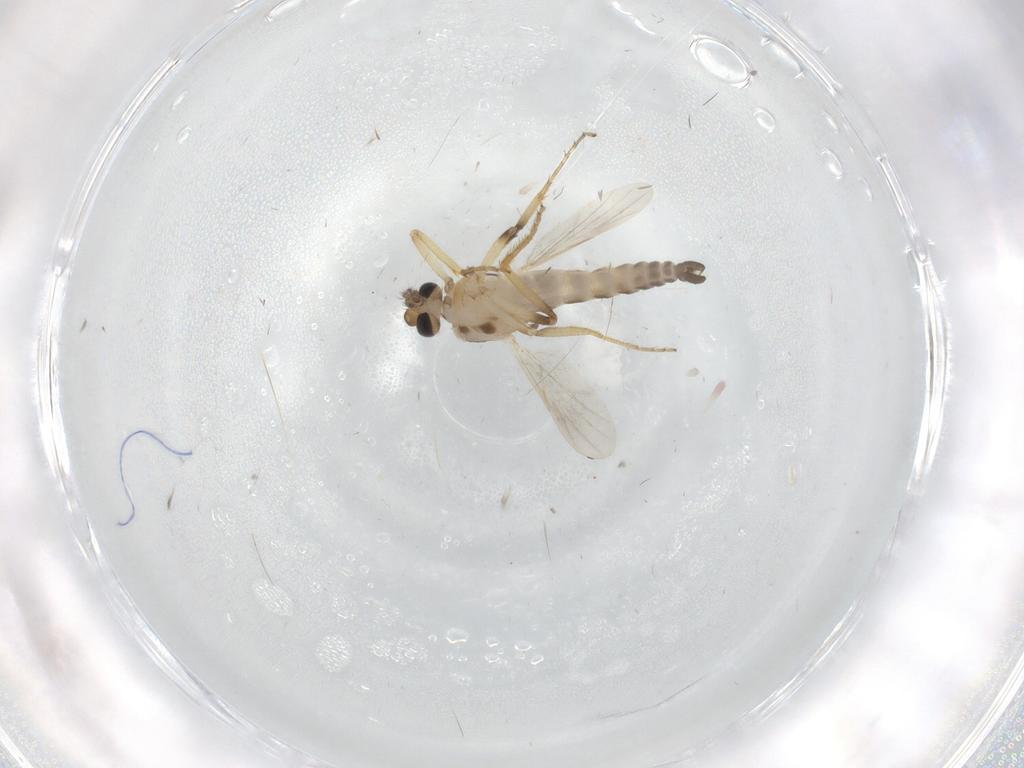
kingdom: Animalia
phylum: Arthropoda
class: Insecta
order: Diptera
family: Ceratopogonidae
